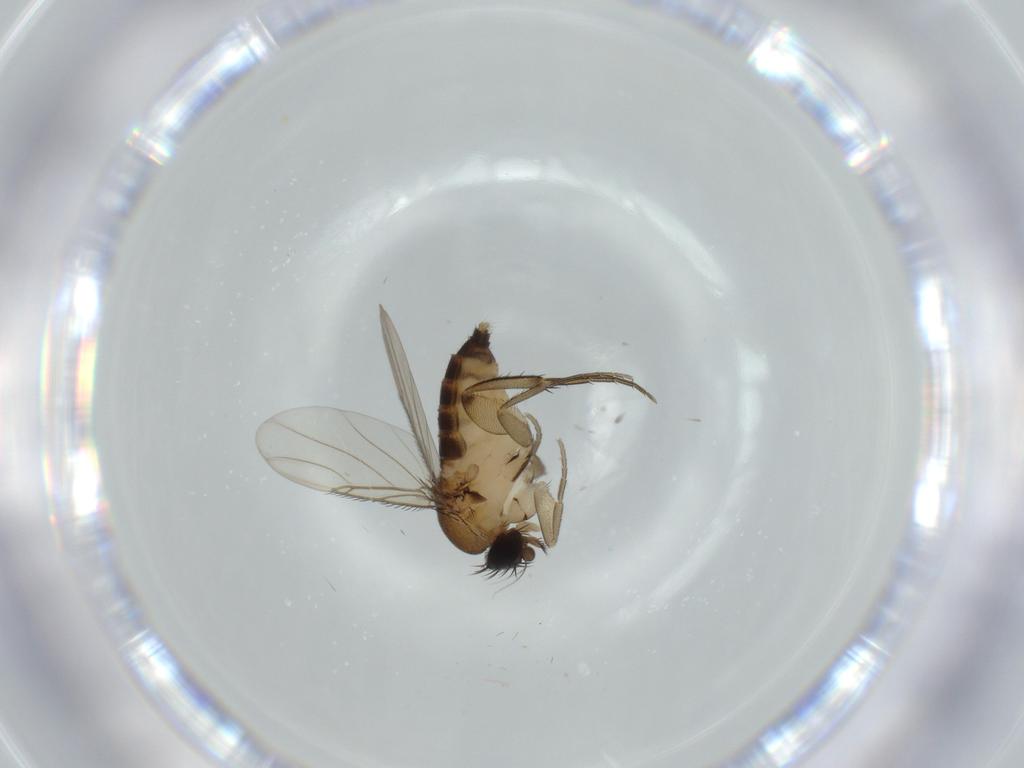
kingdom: Animalia
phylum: Arthropoda
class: Insecta
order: Diptera
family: Phoridae
